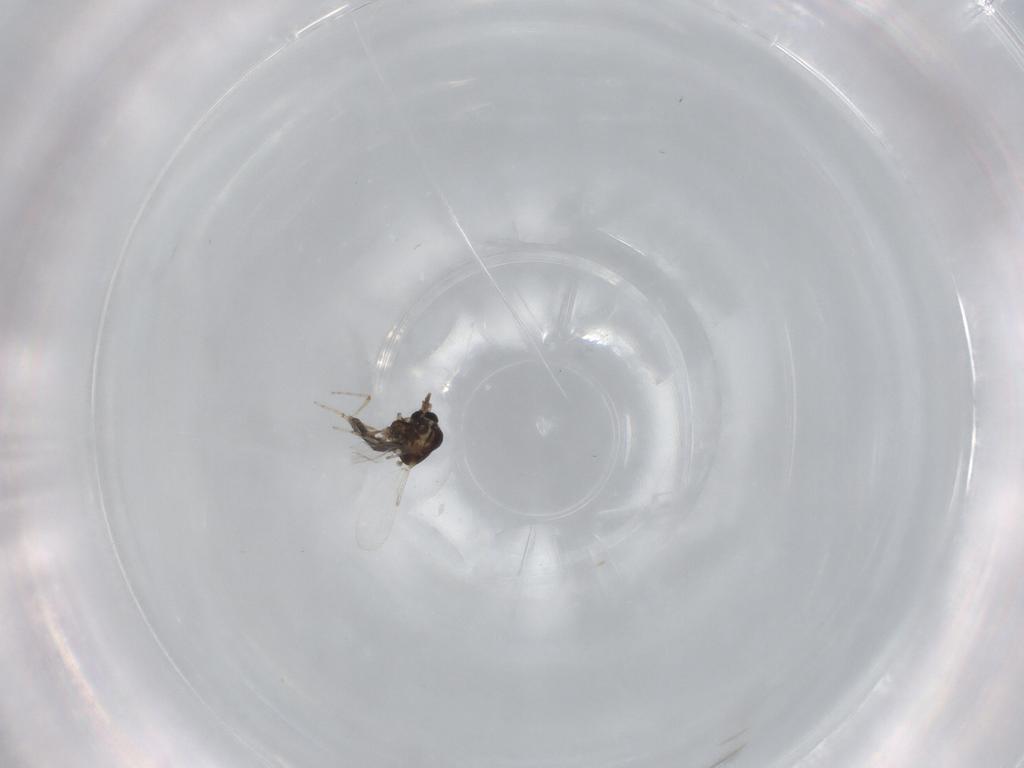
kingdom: Animalia
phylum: Arthropoda
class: Insecta
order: Diptera
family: Ceratopogonidae
